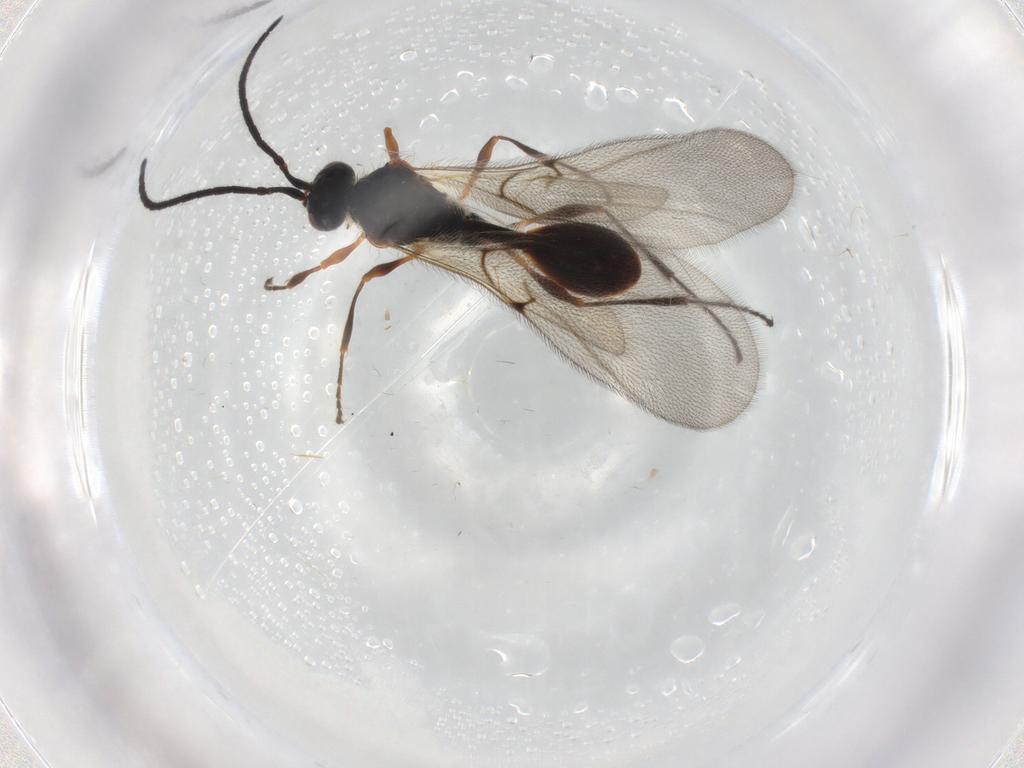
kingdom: Animalia
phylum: Arthropoda
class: Insecta
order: Hymenoptera
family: Diapriidae
